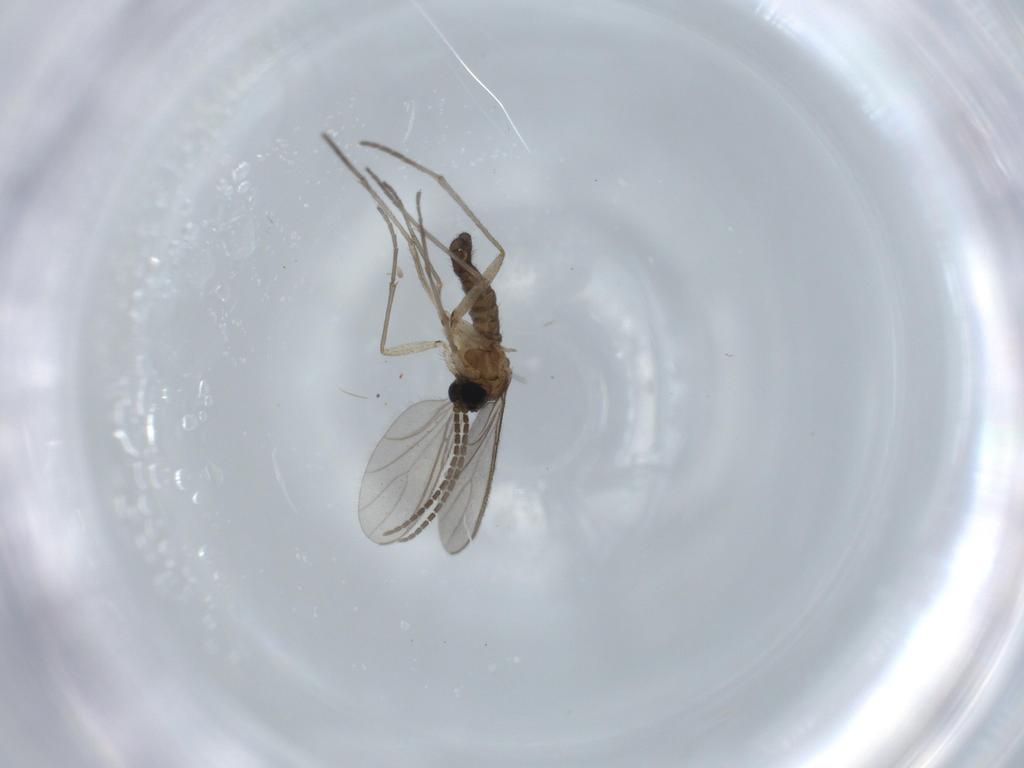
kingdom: Animalia
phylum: Arthropoda
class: Insecta
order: Diptera
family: Sciaridae
